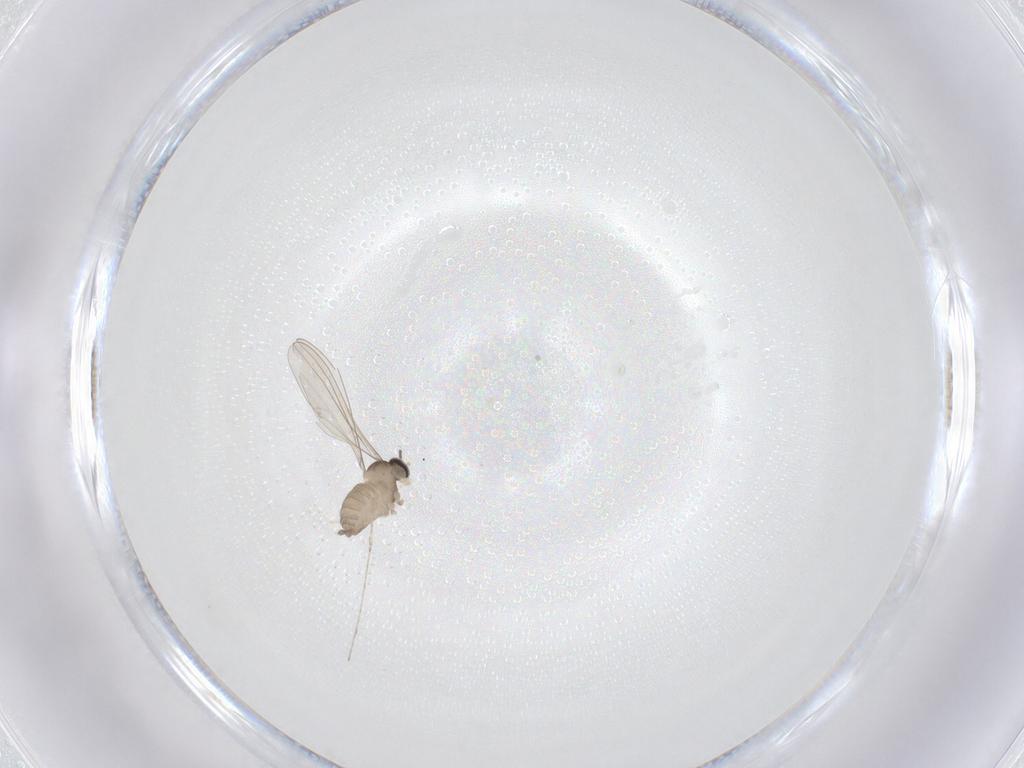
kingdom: Animalia
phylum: Arthropoda
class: Insecta
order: Diptera
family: Cecidomyiidae
